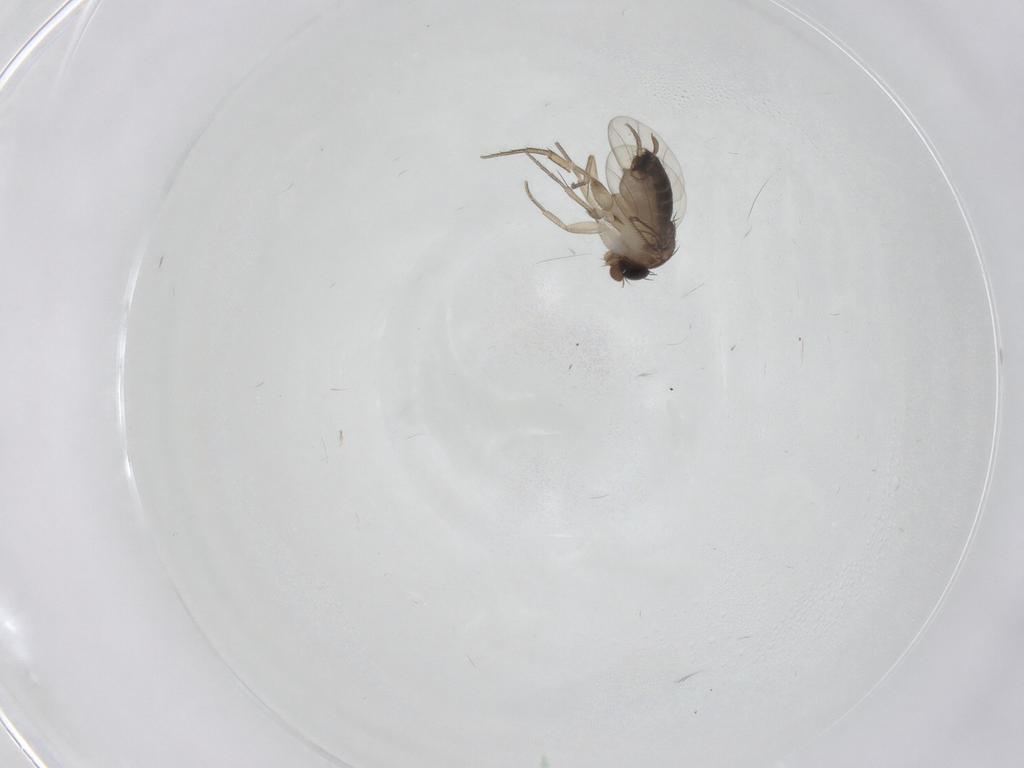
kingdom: Animalia
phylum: Arthropoda
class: Insecta
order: Diptera
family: Phoridae
